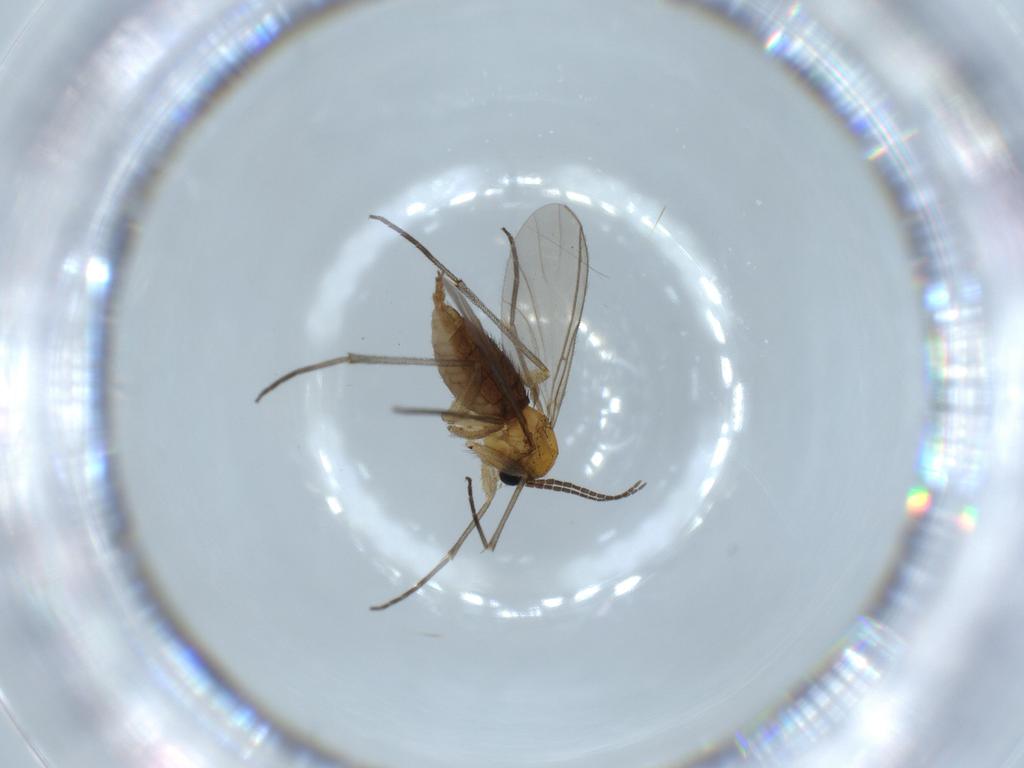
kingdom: Animalia
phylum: Arthropoda
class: Insecta
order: Diptera
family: Sciaridae
